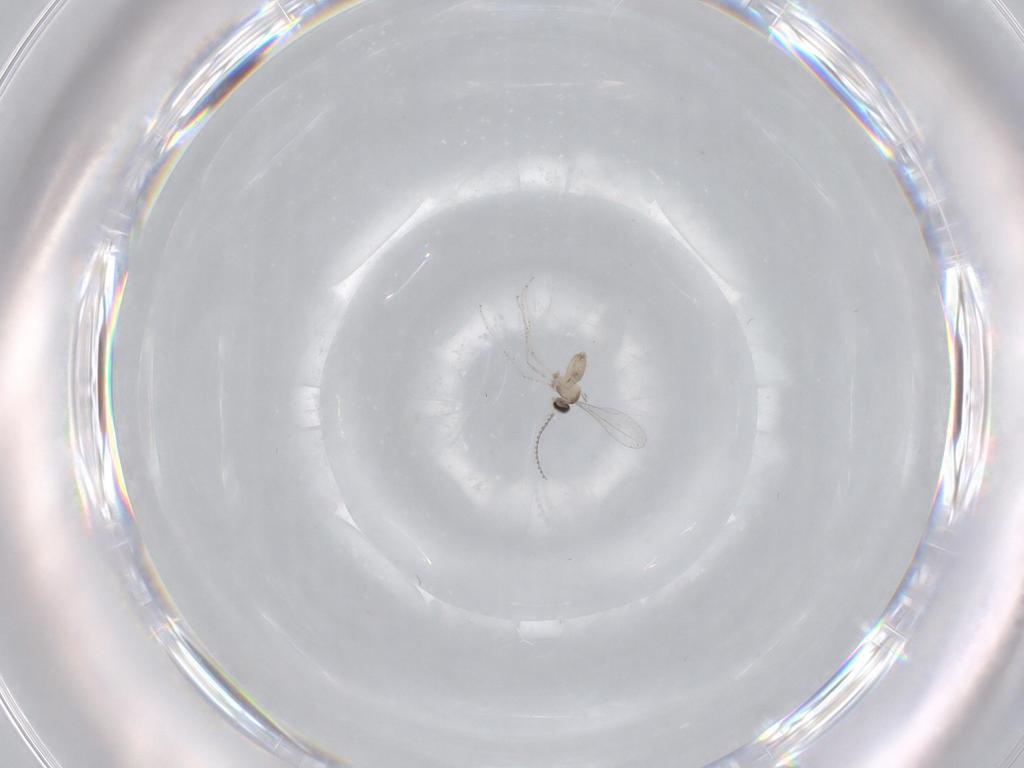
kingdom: Animalia
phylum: Arthropoda
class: Insecta
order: Diptera
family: Cecidomyiidae
